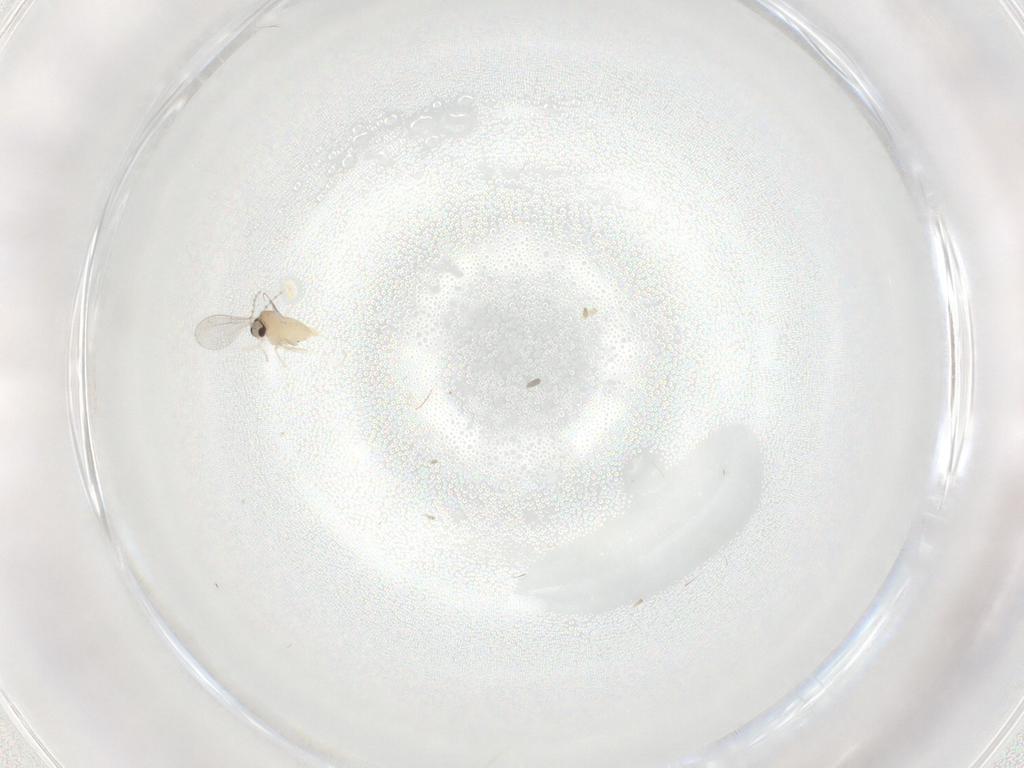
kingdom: Animalia
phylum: Arthropoda
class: Insecta
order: Diptera
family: Cecidomyiidae
